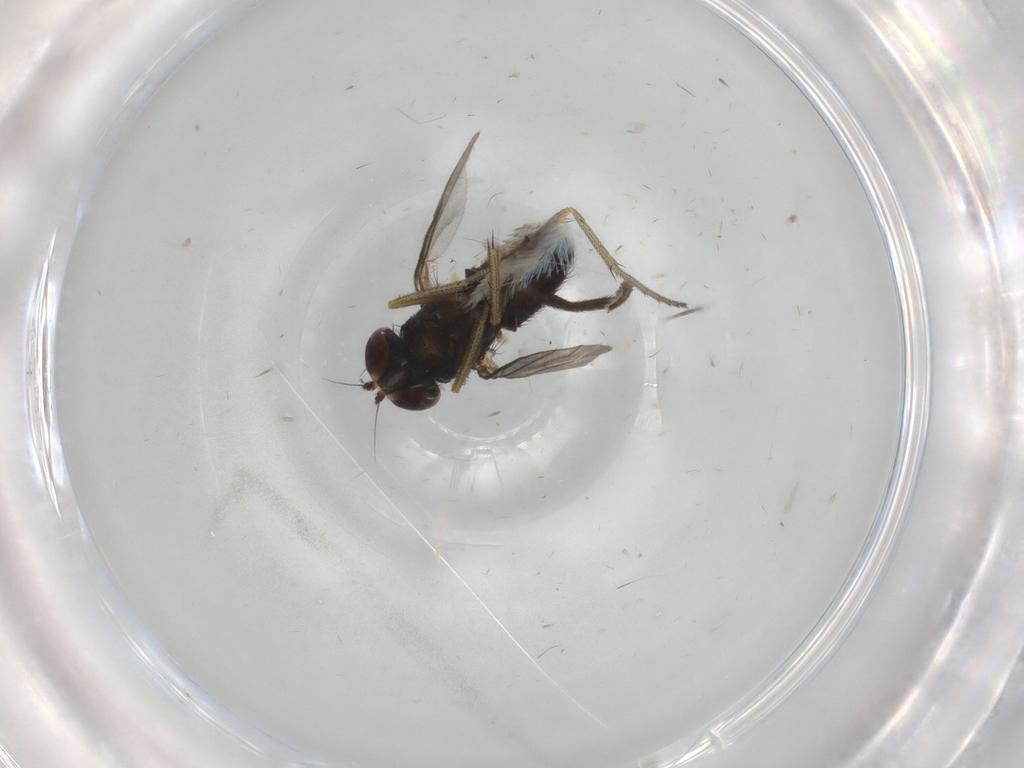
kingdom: Animalia
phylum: Arthropoda
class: Insecta
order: Diptera
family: Dolichopodidae
